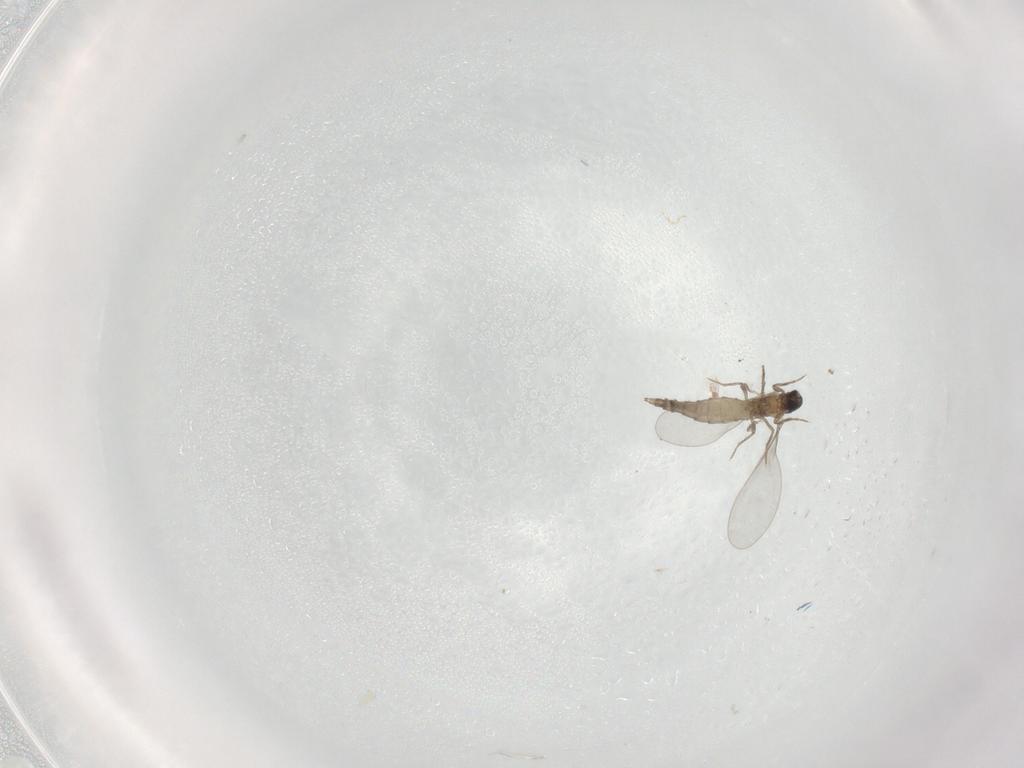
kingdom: Animalia
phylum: Arthropoda
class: Insecta
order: Diptera
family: Cecidomyiidae
